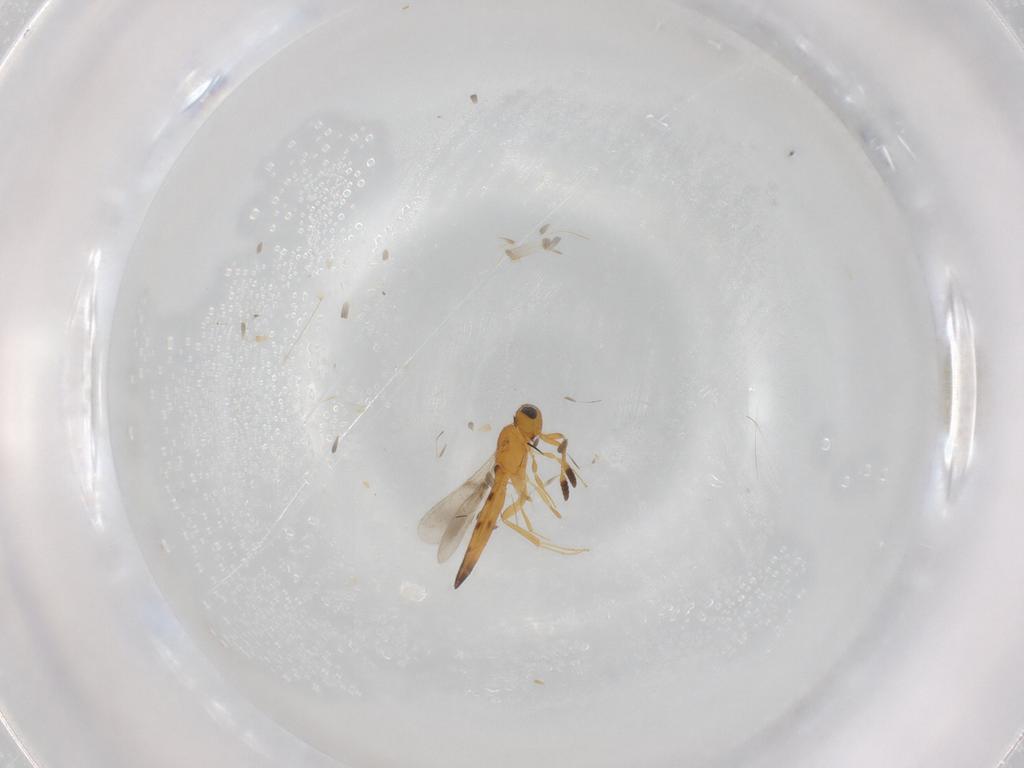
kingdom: Animalia
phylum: Arthropoda
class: Insecta
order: Hymenoptera
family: Scelionidae
